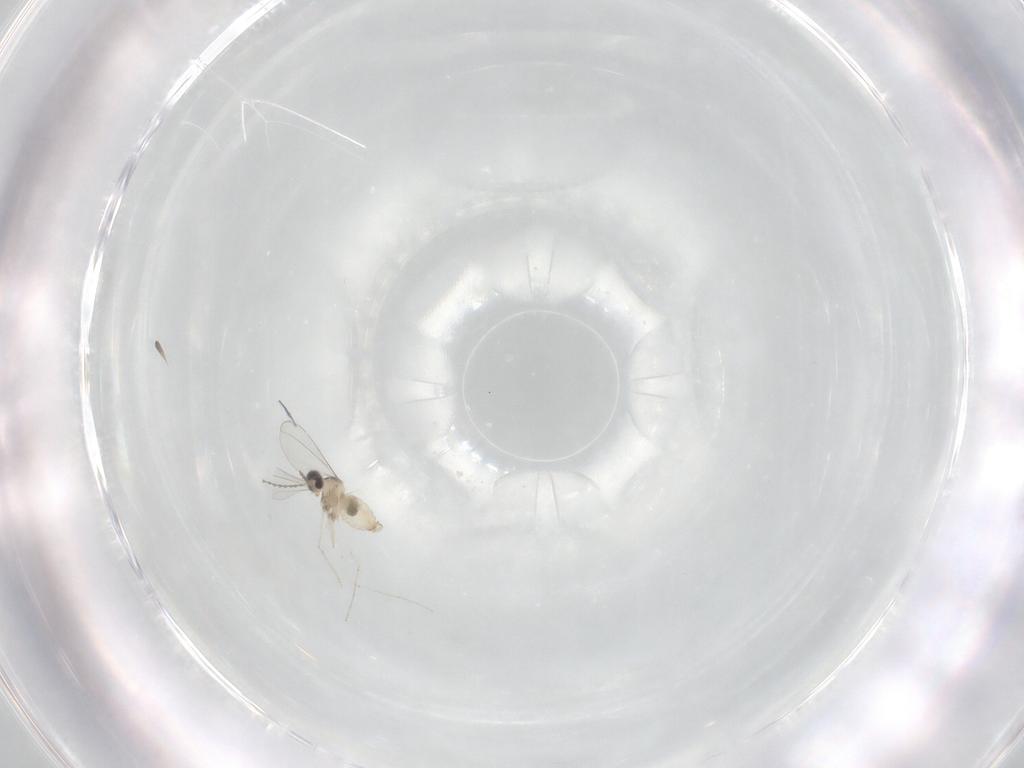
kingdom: Animalia
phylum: Arthropoda
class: Insecta
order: Diptera
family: Cecidomyiidae
